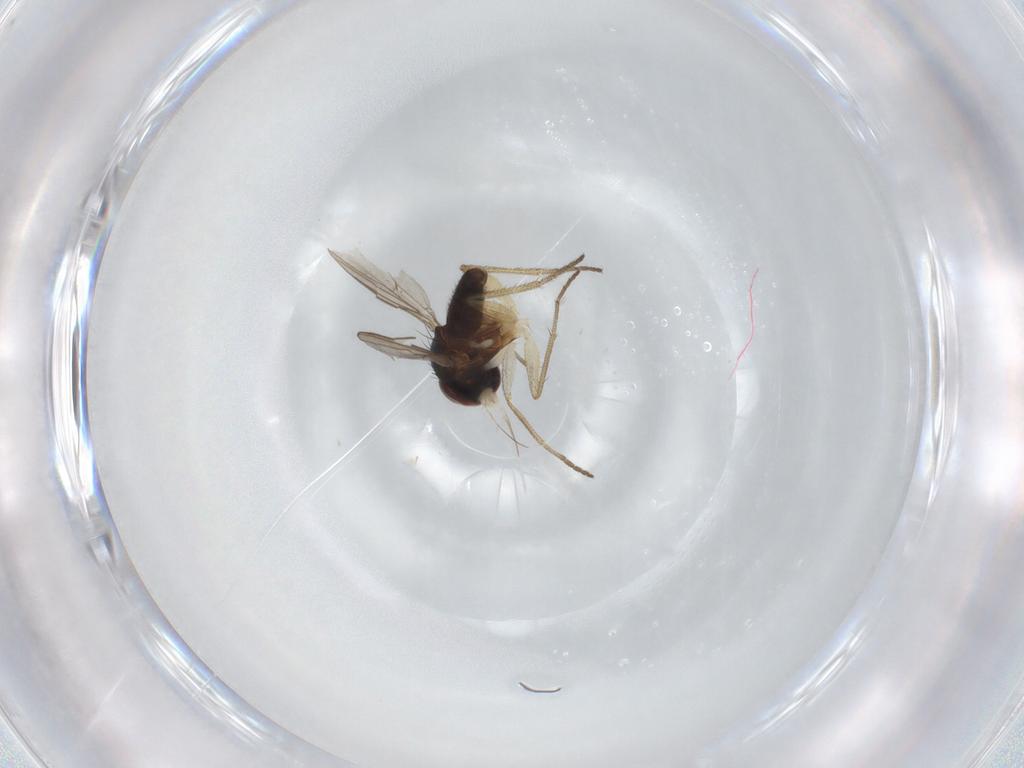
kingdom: Animalia
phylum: Arthropoda
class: Insecta
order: Diptera
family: Dolichopodidae
